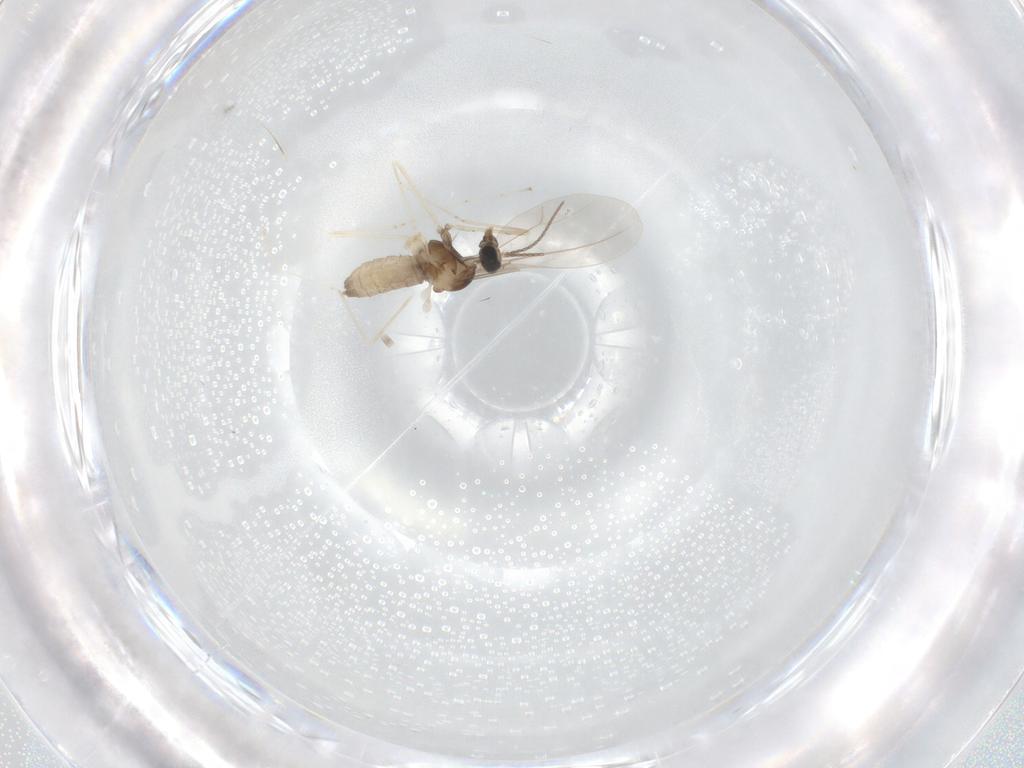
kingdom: Animalia
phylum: Arthropoda
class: Insecta
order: Diptera
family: Cecidomyiidae
